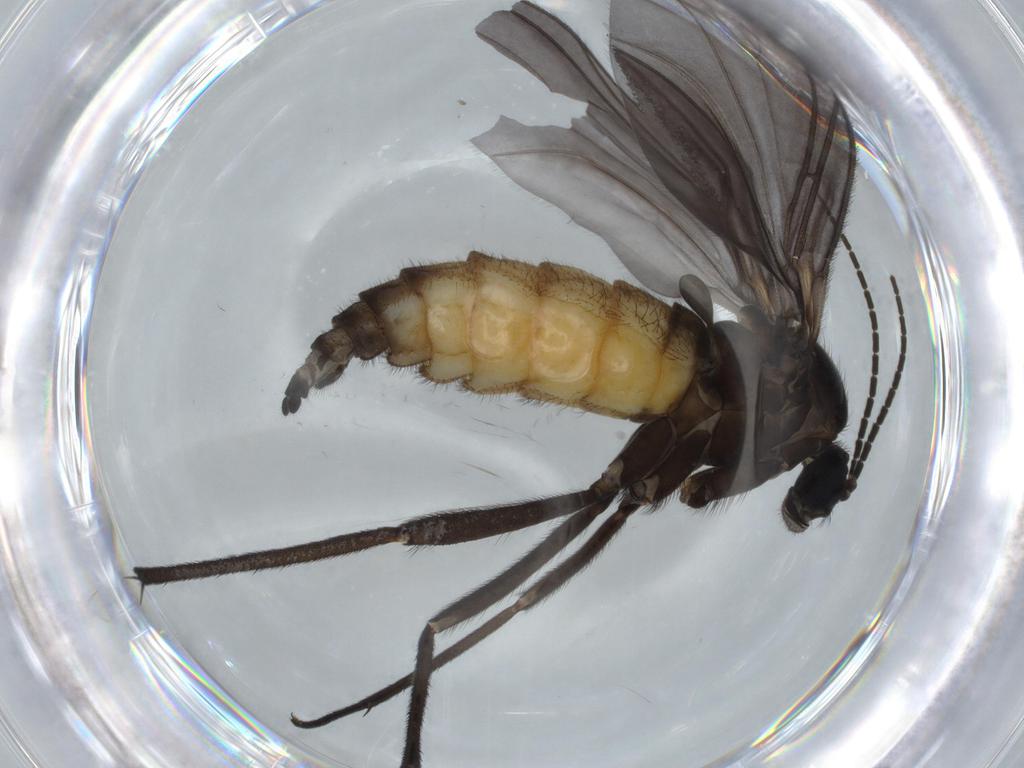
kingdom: Animalia
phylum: Arthropoda
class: Insecta
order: Diptera
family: Sciaridae
